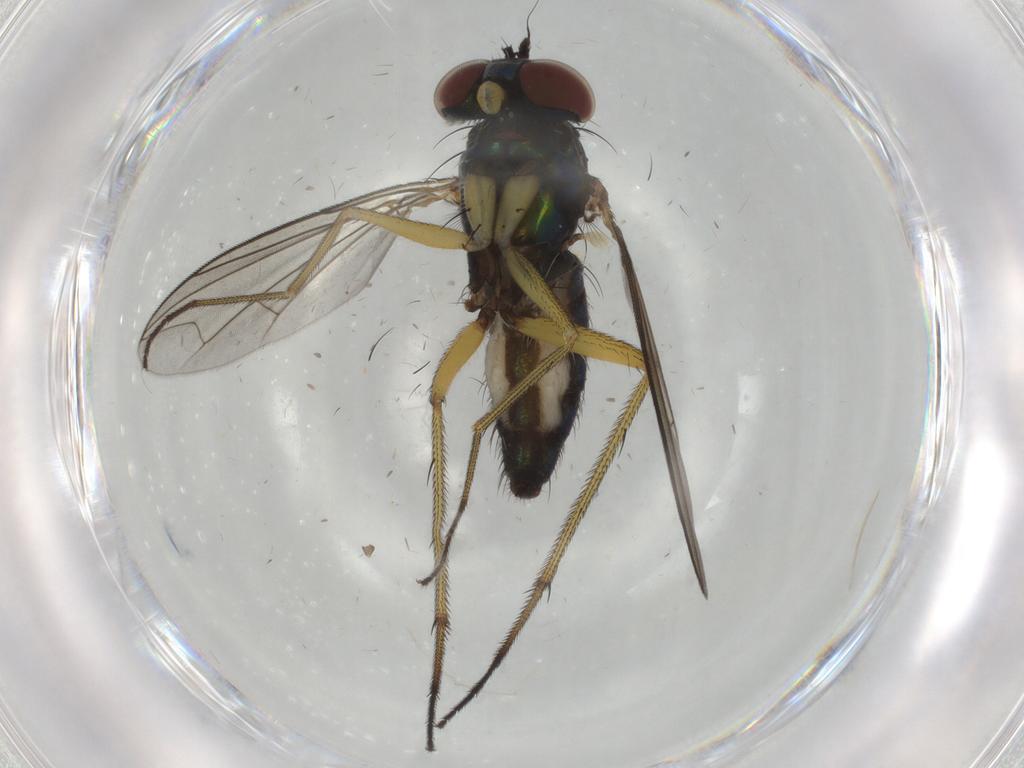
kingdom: Animalia
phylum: Arthropoda
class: Insecta
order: Diptera
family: Dolichopodidae
